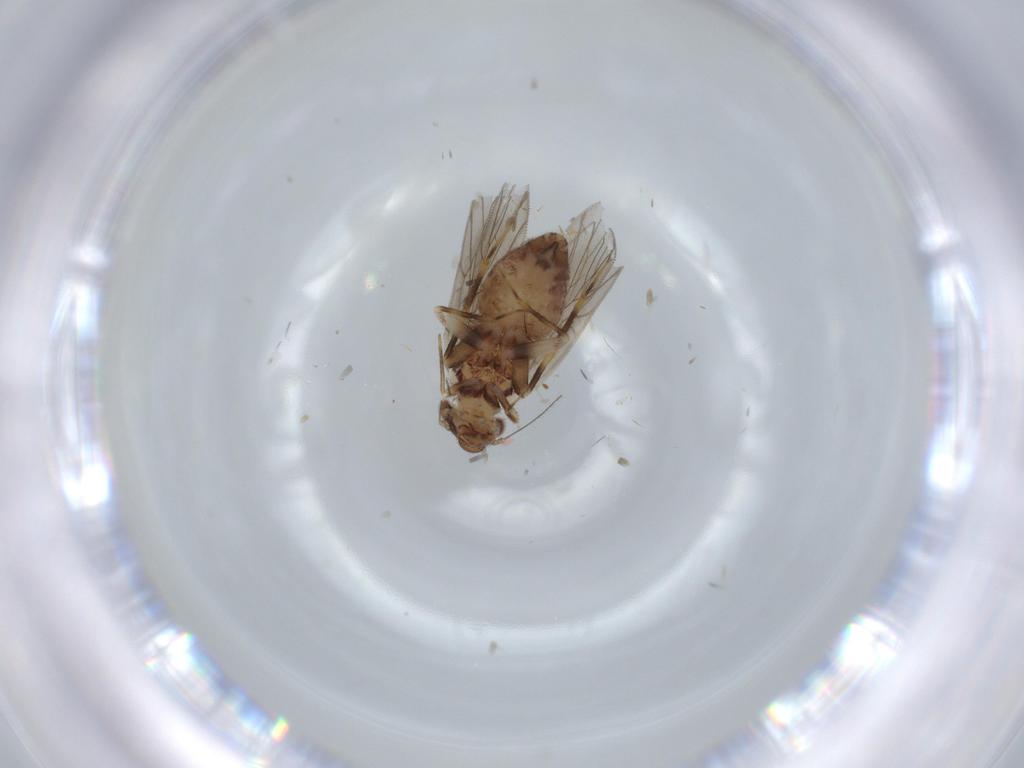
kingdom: Animalia
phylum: Arthropoda
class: Insecta
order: Psocodea
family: Lepidopsocidae
